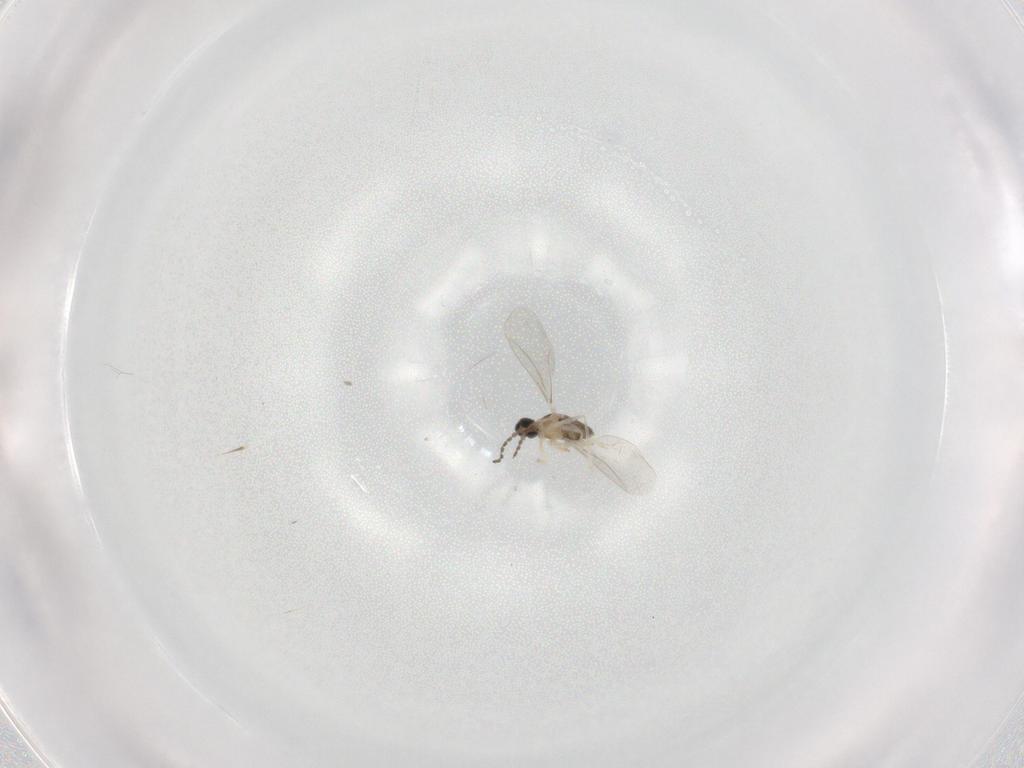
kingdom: Animalia
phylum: Arthropoda
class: Insecta
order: Diptera
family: Cecidomyiidae
